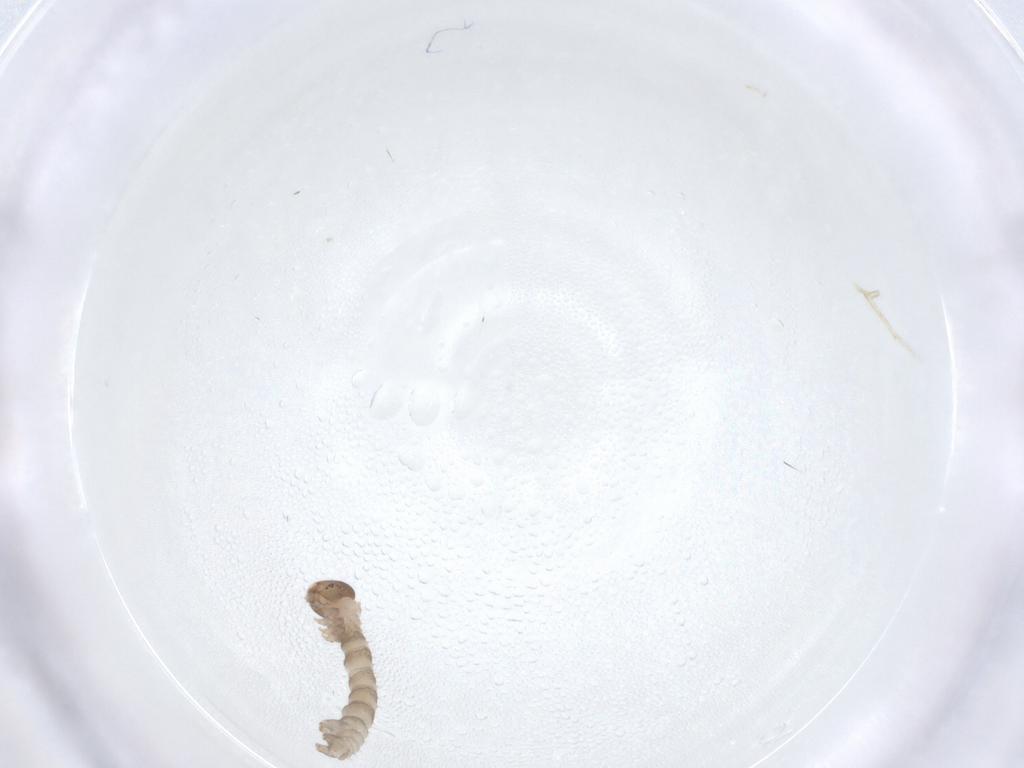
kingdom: Animalia
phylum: Arthropoda
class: Insecta
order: Lepidoptera
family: Geometridae
